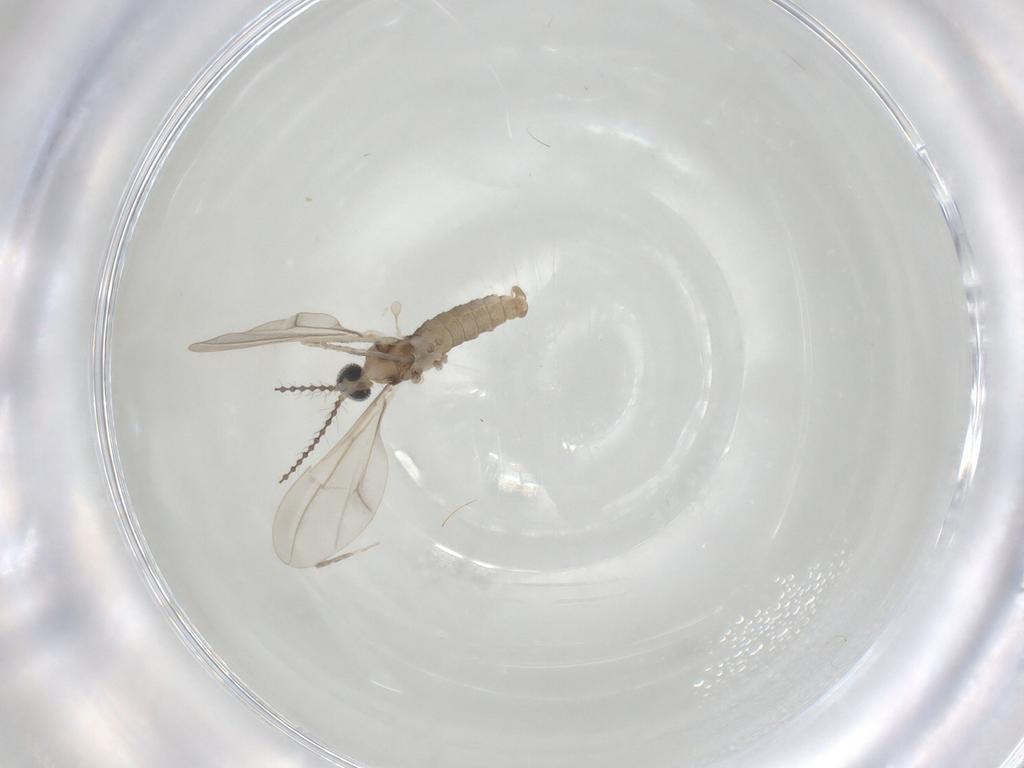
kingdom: Animalia
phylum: Arthropoda
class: Insecta
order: Diptera
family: Cecidomyiidae
